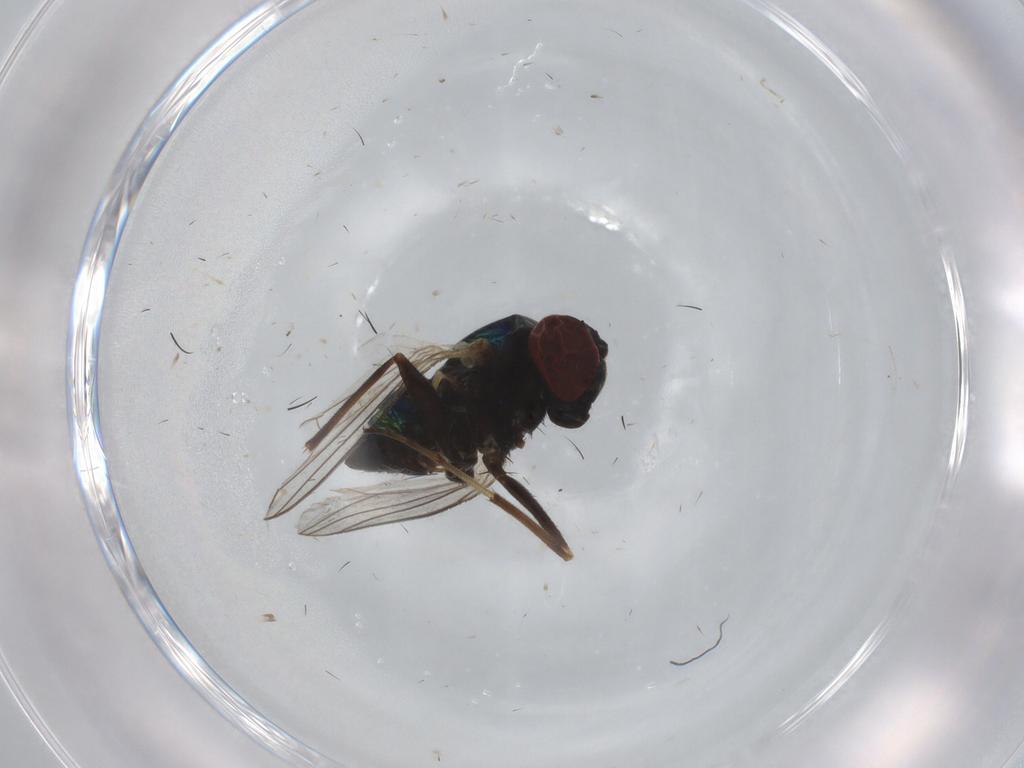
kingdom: Animalia
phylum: Arthropoda
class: Insecta
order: Diptera
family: Dolichopodidae
